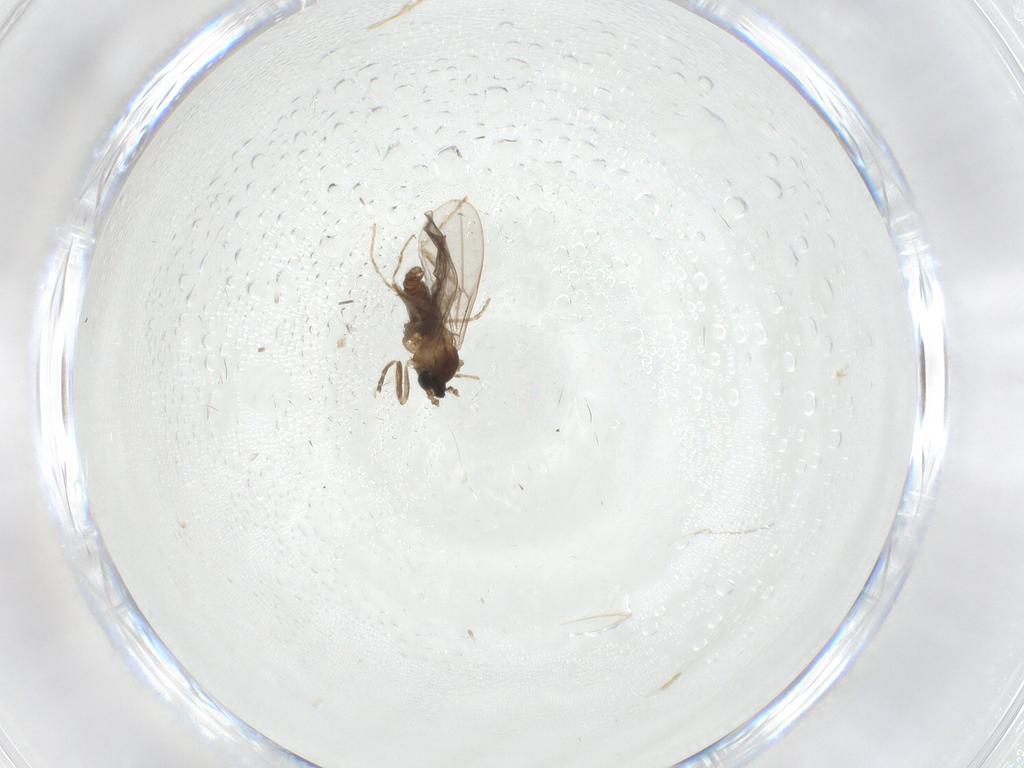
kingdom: Animalia
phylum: Arthropoda
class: Insecta
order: Diptera
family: Cecidomyiidae
